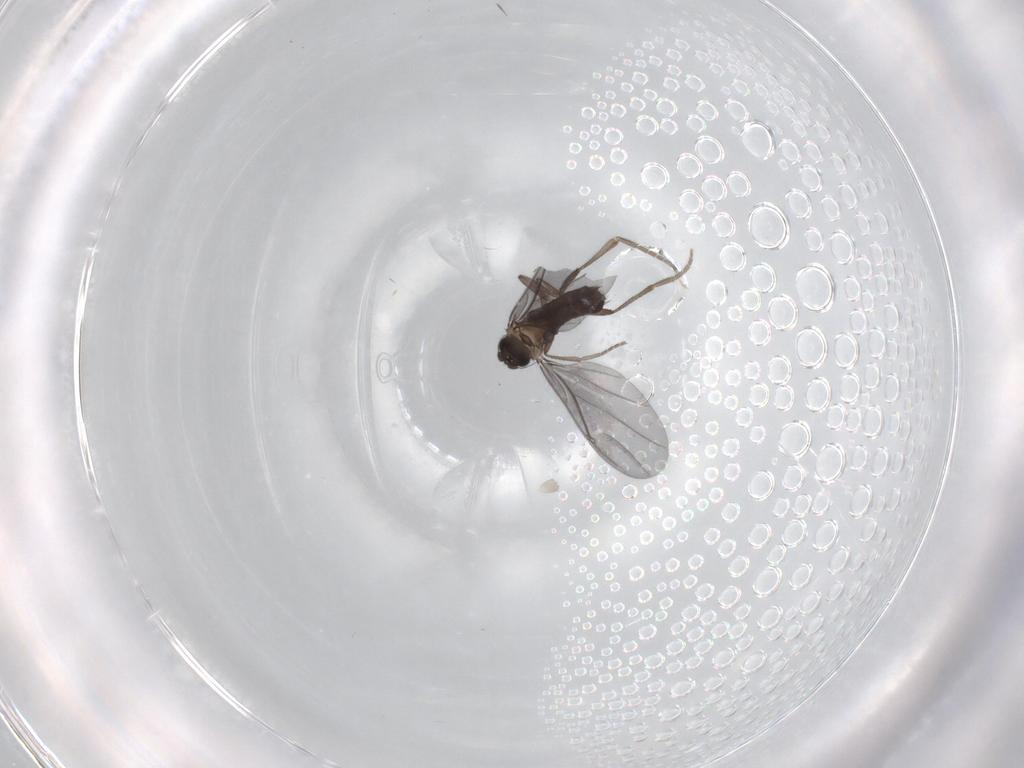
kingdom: Animalia
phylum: Arthropoda
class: Insecta
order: Diptera
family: Phoridae
